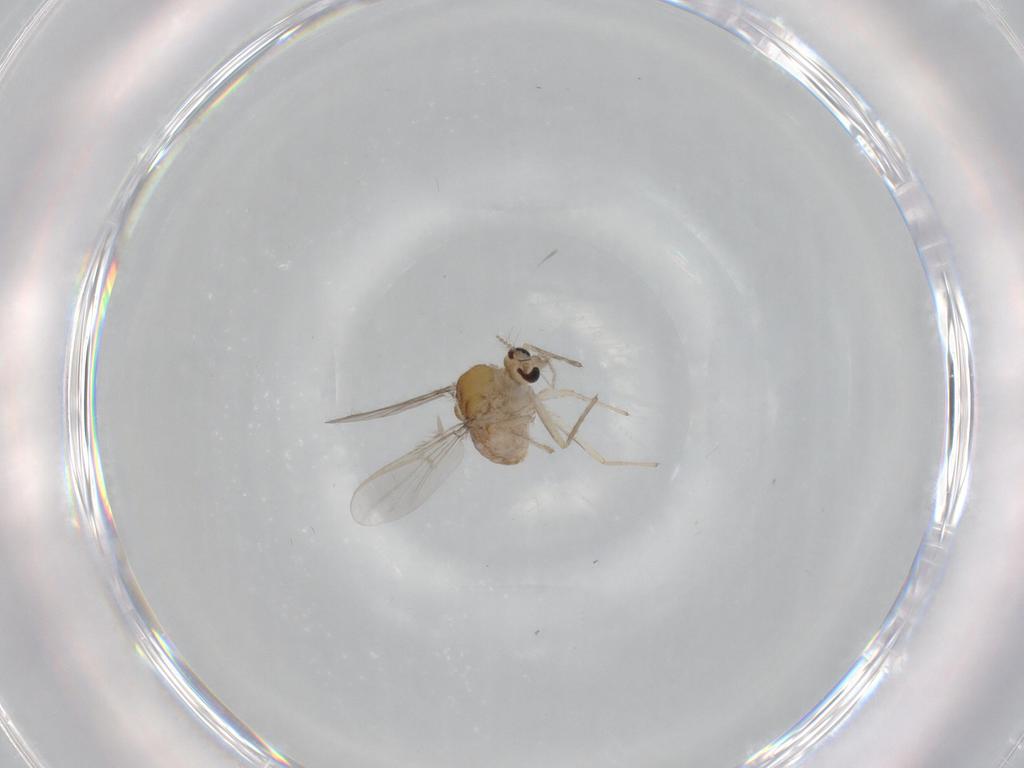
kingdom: Animalia
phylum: Arthropoda
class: Insecta
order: Diptera
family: Chironomidae
